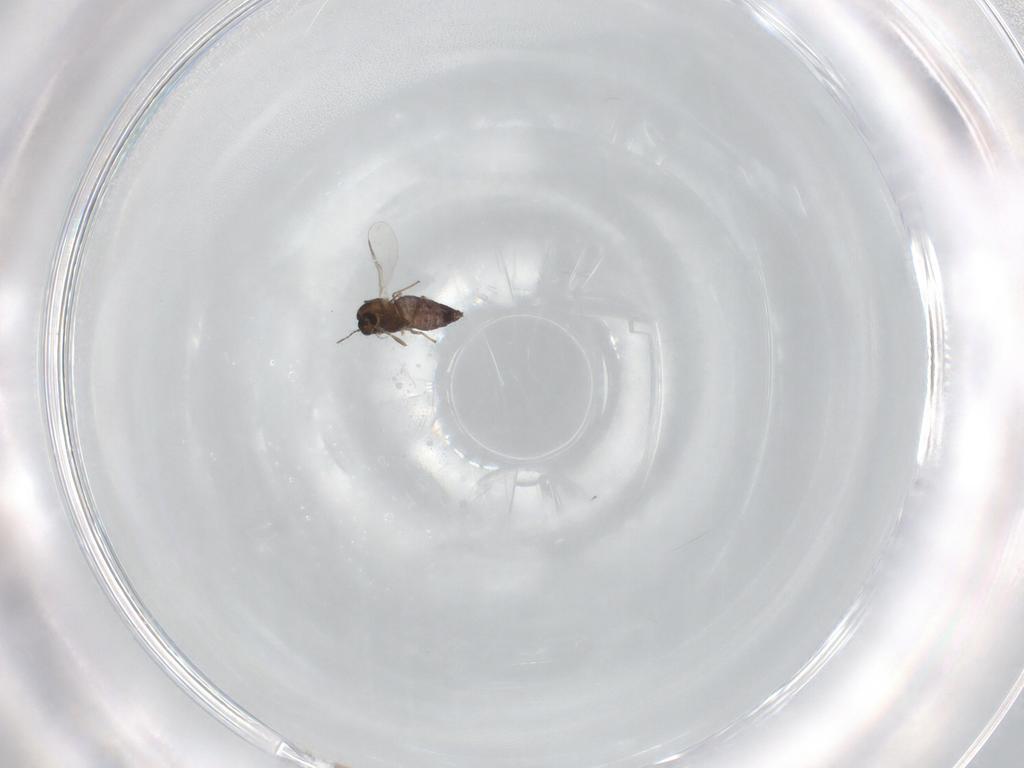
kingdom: Animalia
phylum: Arthropoda
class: Insecta
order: Diptera
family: Chironomidae
